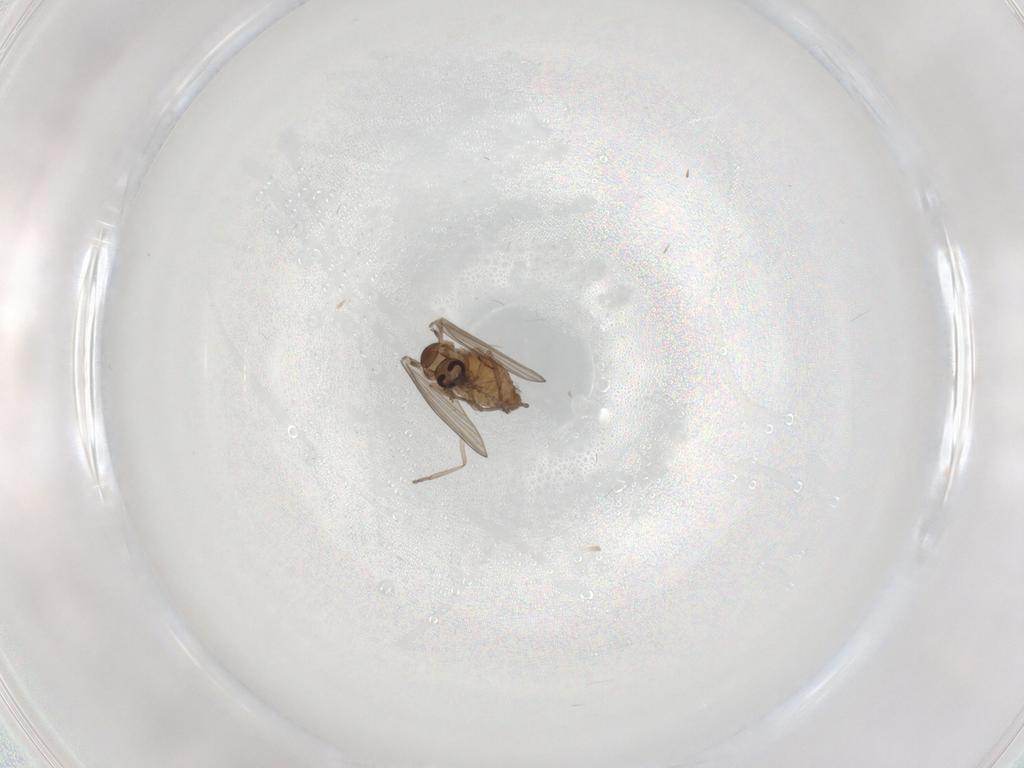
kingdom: Animalia
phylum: Arthropoda
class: Insecta
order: Diptera
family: Psychodidae
